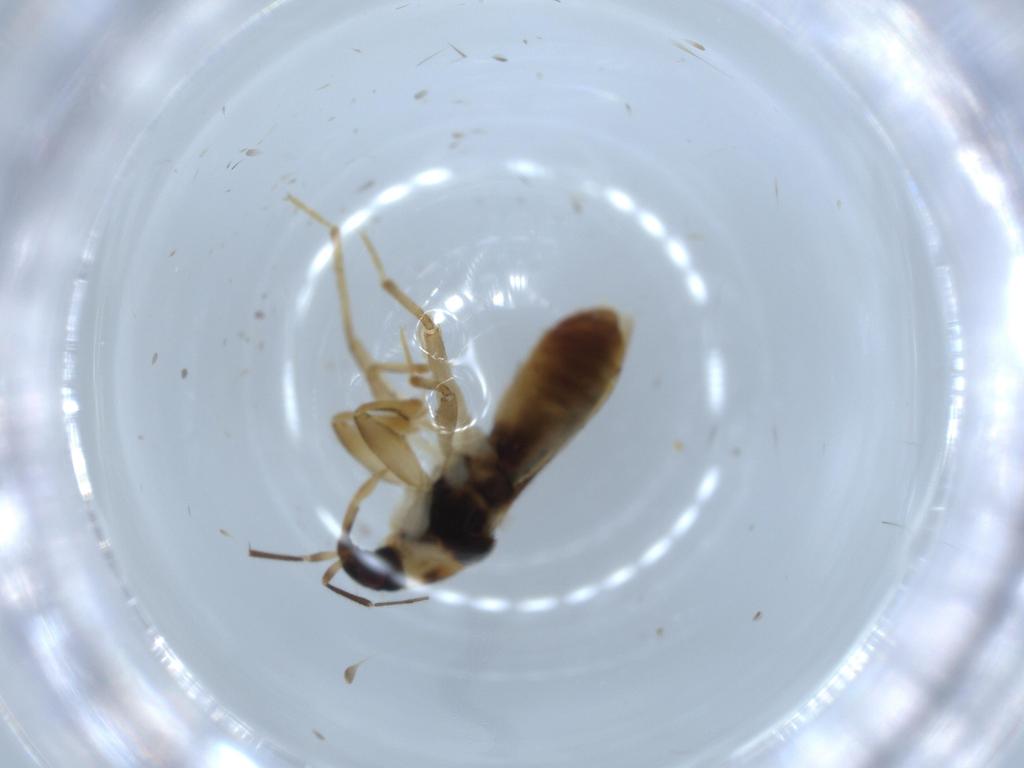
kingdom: Animalia
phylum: Arthropoda
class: Insecta
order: Hemiptera
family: Nabidae
